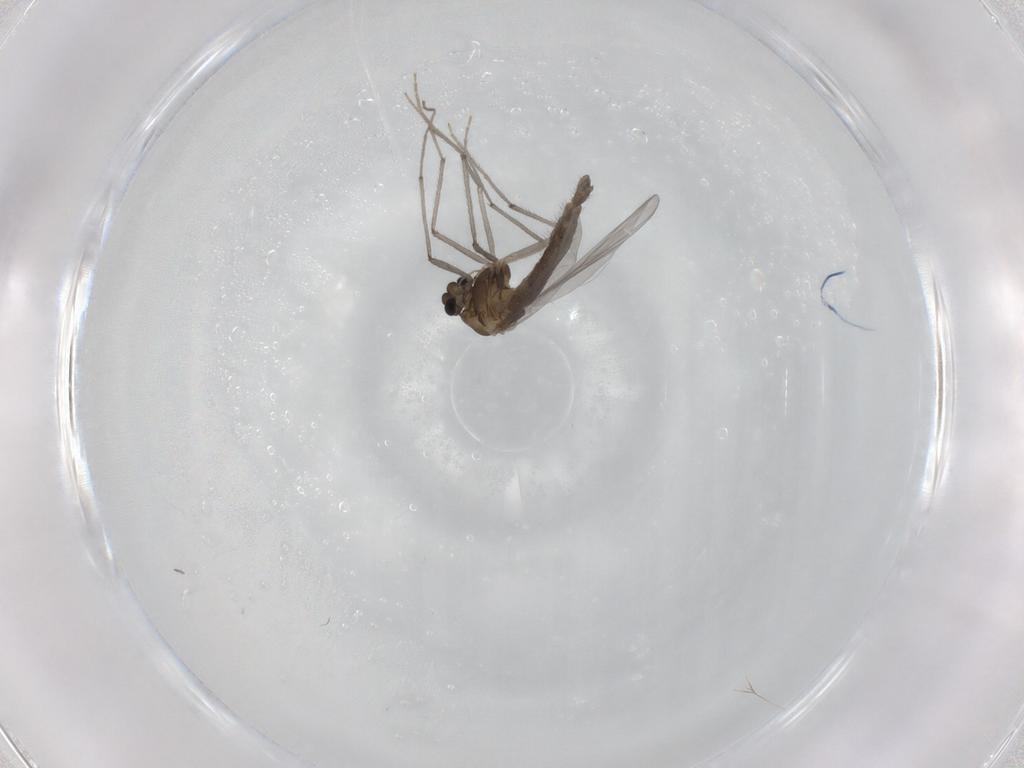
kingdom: Animalia
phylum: Arthropoda
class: Insecta
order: Diptera
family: Chironomidae
